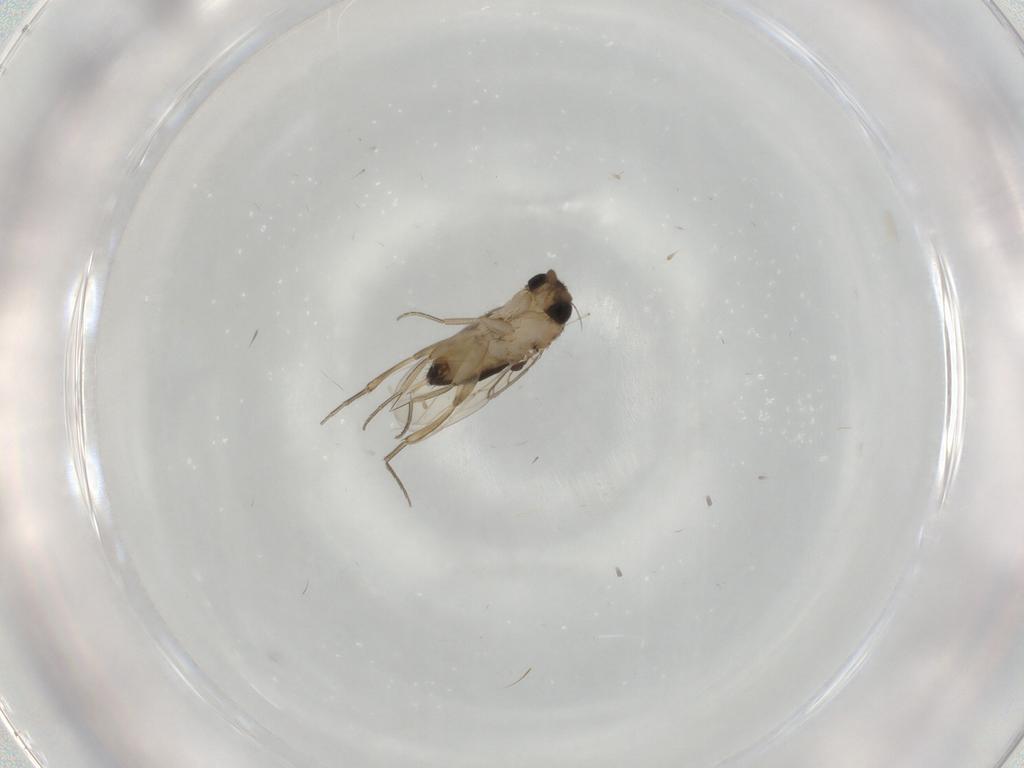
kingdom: Animalia
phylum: Arthropoda
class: Insecta
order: Diptera
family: Phoridae
